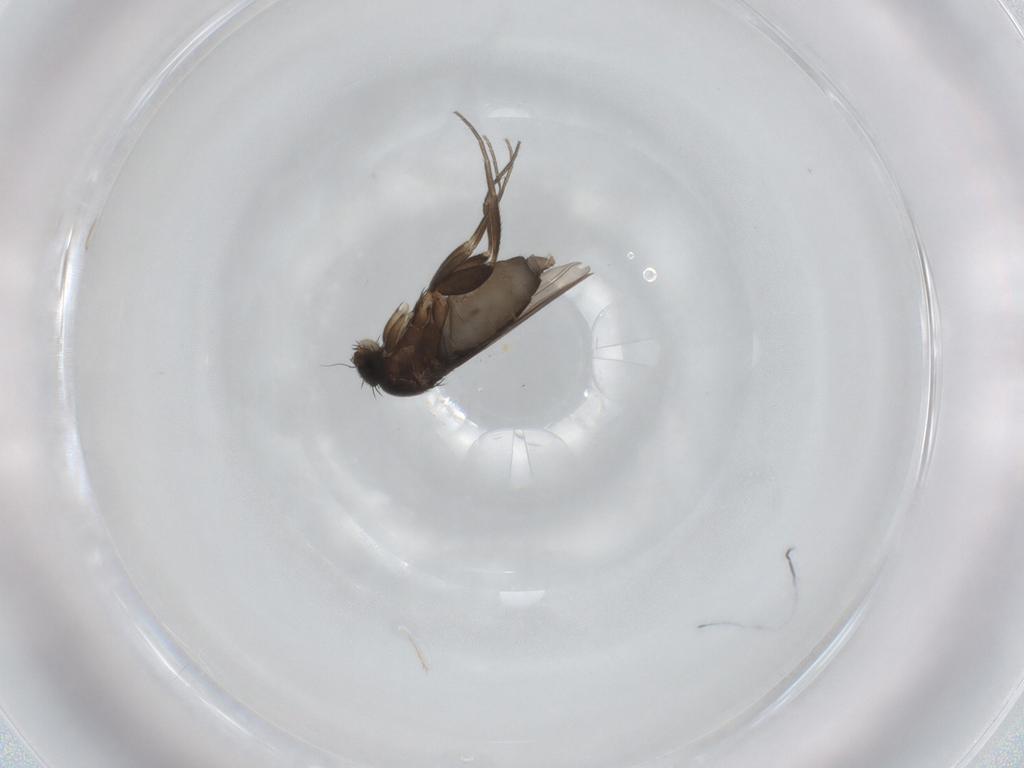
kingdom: Animalia
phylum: Arthropoda
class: Insecta
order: Diptera
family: Phoridae
